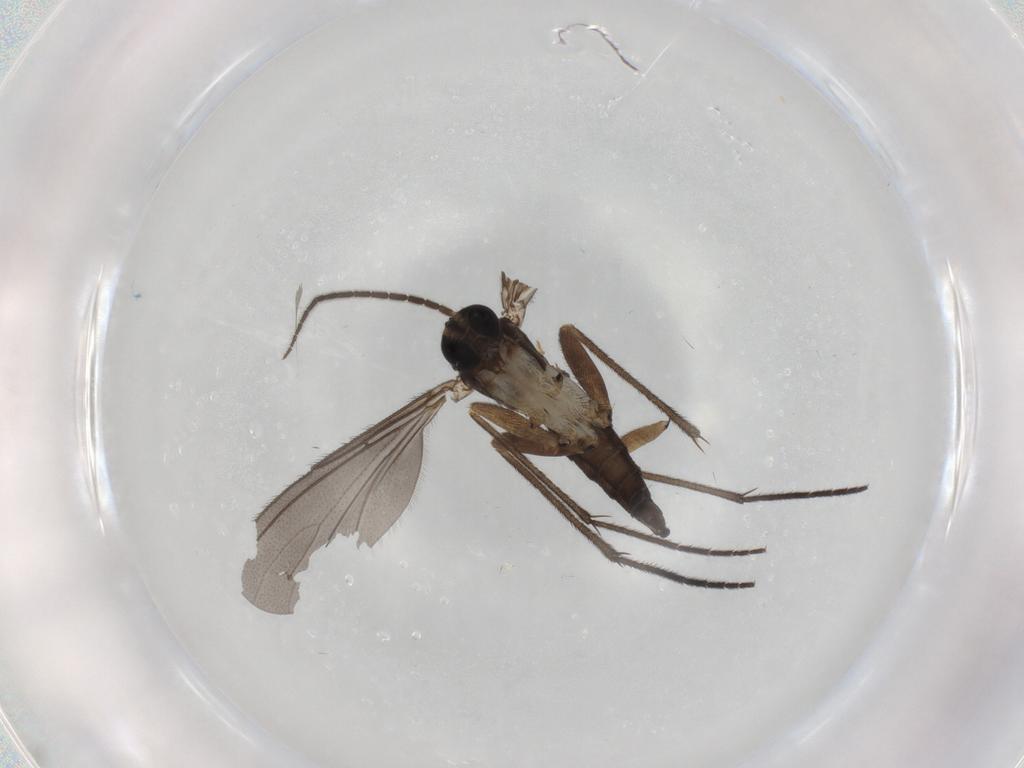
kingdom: Animalia
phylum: Arthropoda
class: Insecta
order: Diptera
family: Sciaridae
